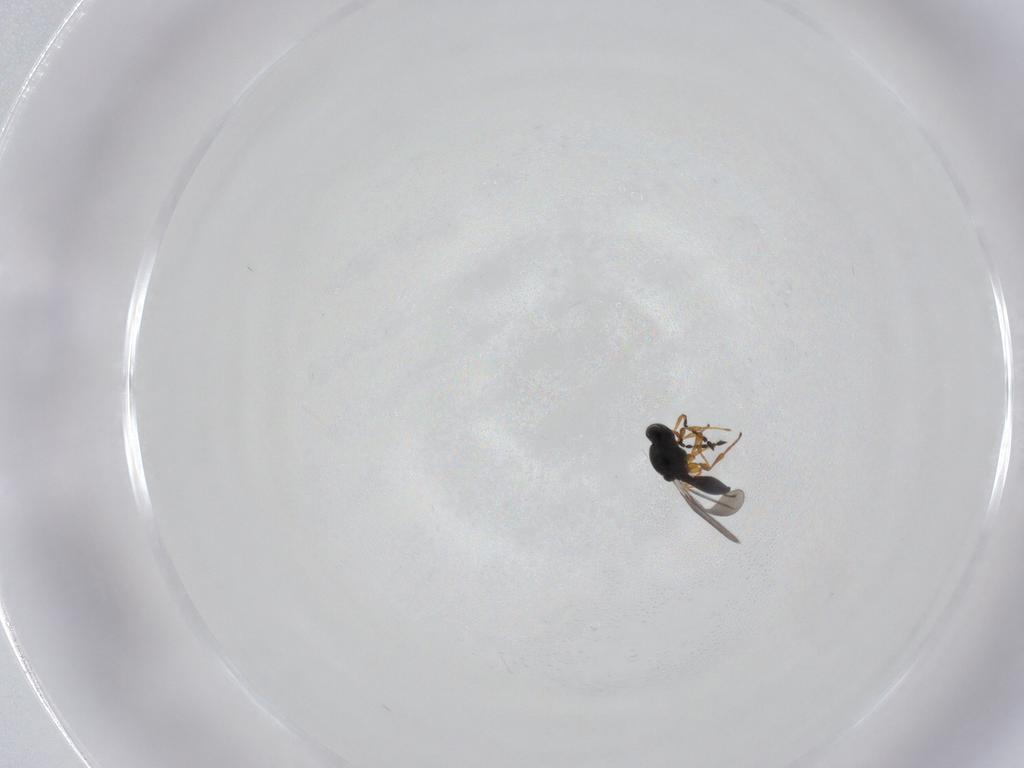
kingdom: Animalia
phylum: Arthropoda
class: Insecta
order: Hymenoptera
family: Platygastridae
